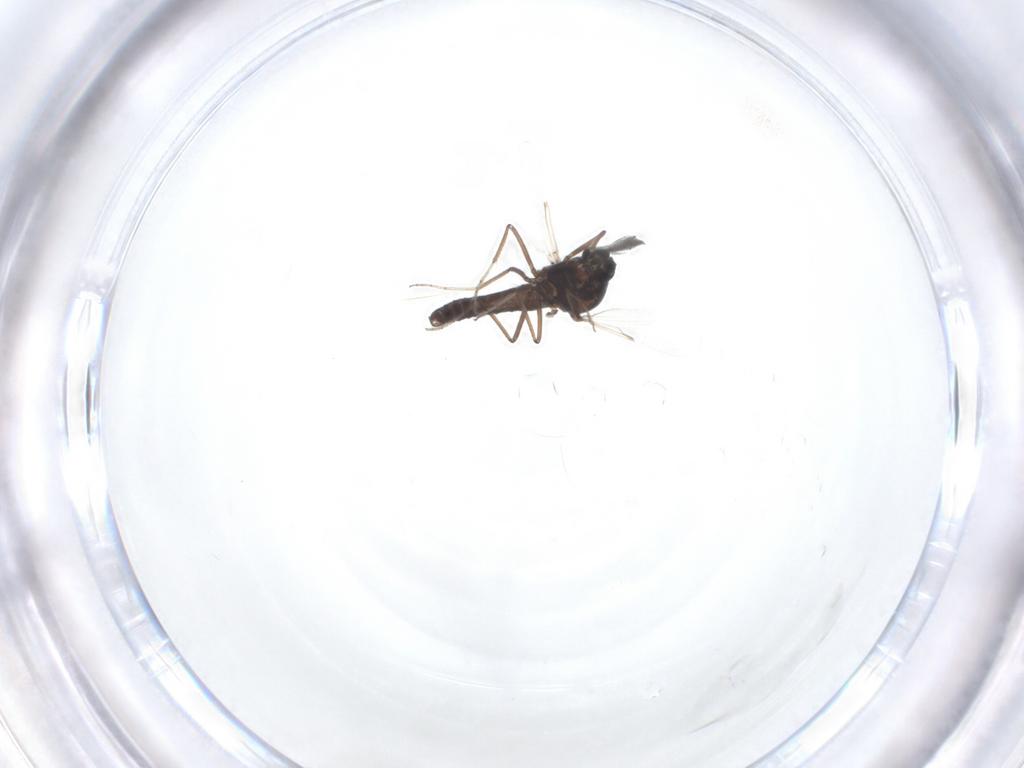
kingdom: Animalia
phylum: Arthropoda
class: Insecta
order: Diptera
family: Ceratopogonidae
